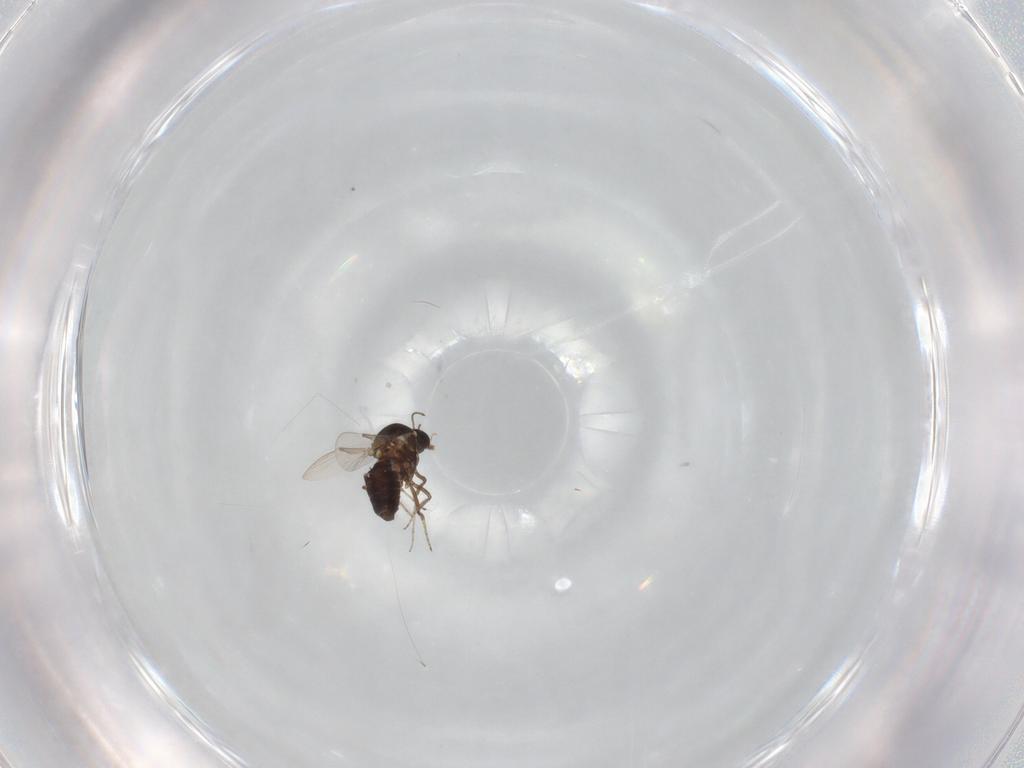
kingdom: Animalia
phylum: Arthropoda
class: Insecta
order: Diptera
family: Ceratopogonidae
